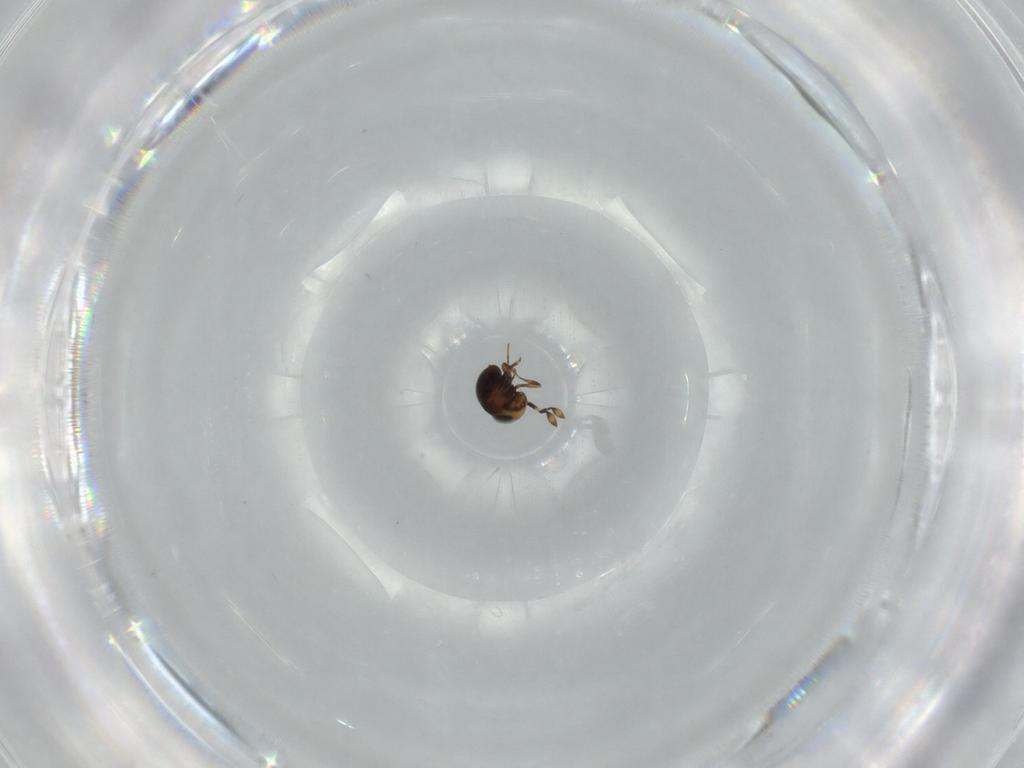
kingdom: Animalia
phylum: Arthropoda
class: Insecta
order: Hymenoptera
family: Scelionidae
